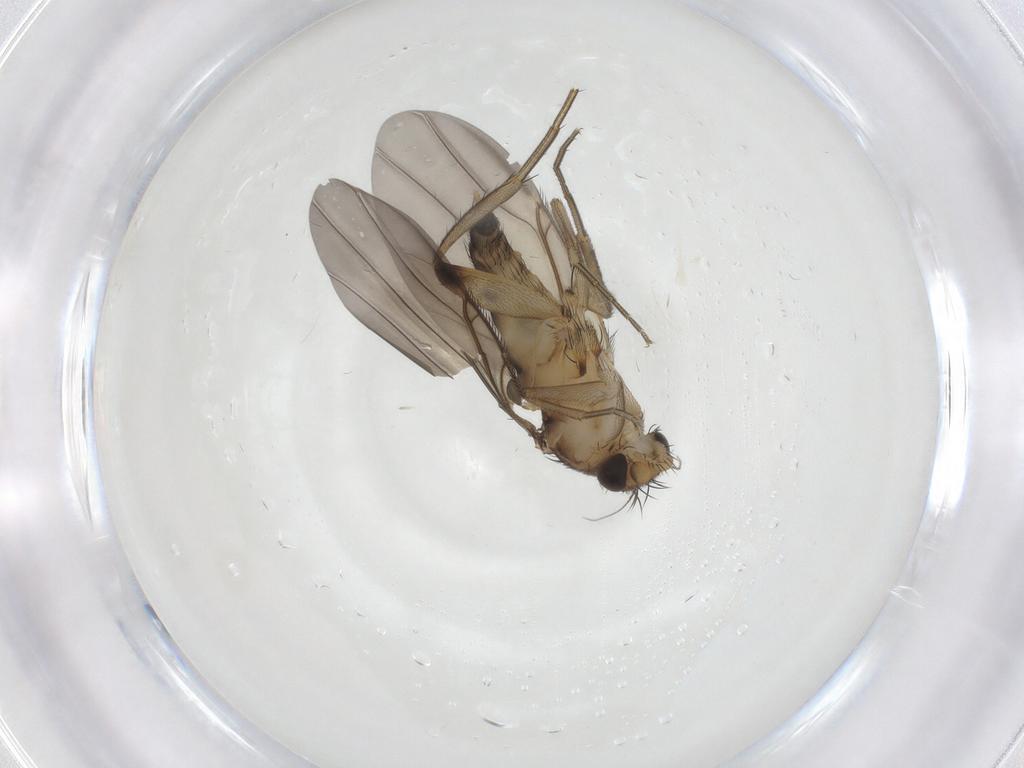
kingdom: Animalia
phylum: Arthropoda
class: Insecta
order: Diptera
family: Phoridae
